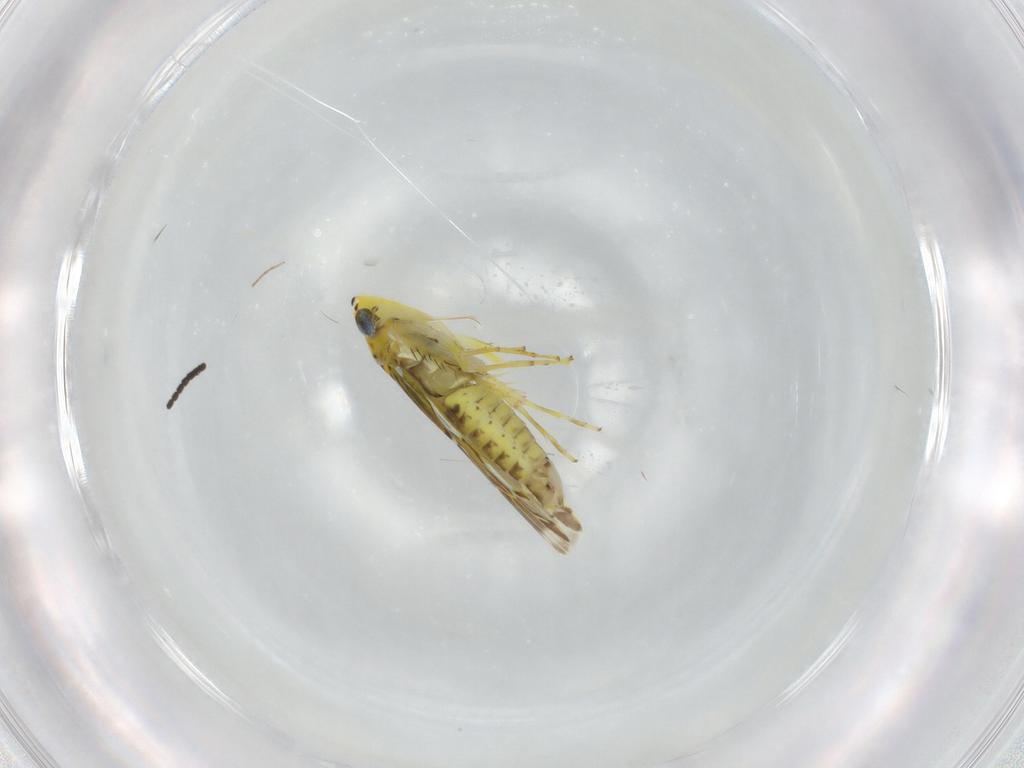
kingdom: Animalia
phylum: Arthropoda
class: Insecta
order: Hemiptera
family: Cicadellidae
